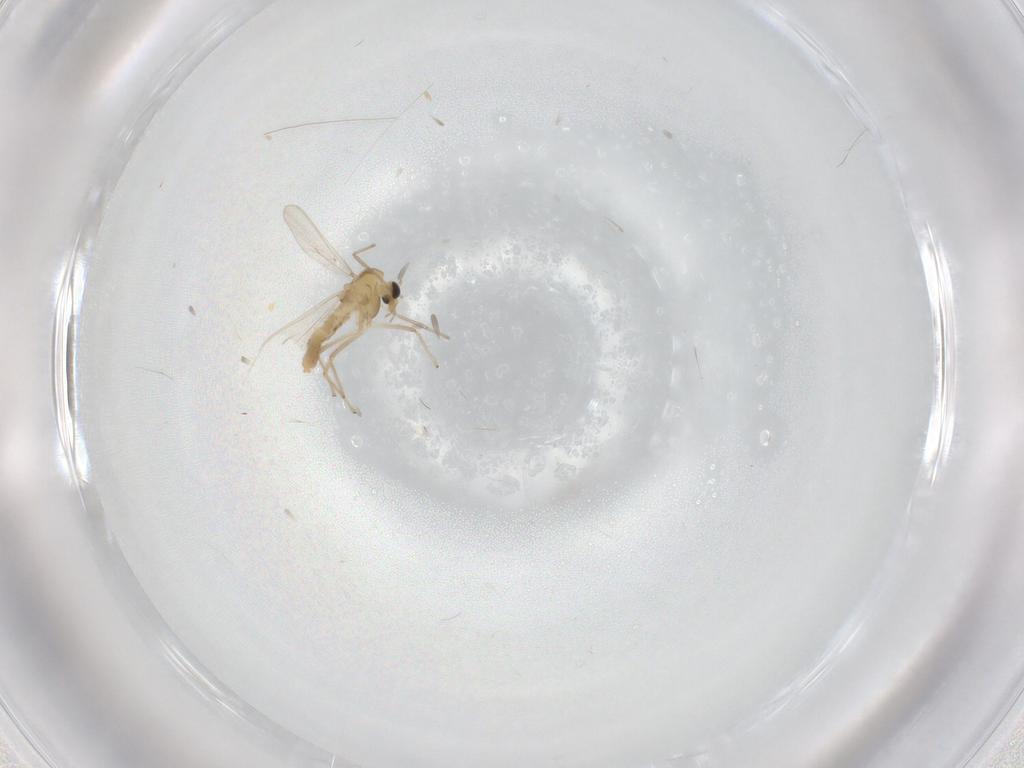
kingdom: Animalia
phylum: Arthropoda
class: Insecta
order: Diptera
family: Chironomidae
